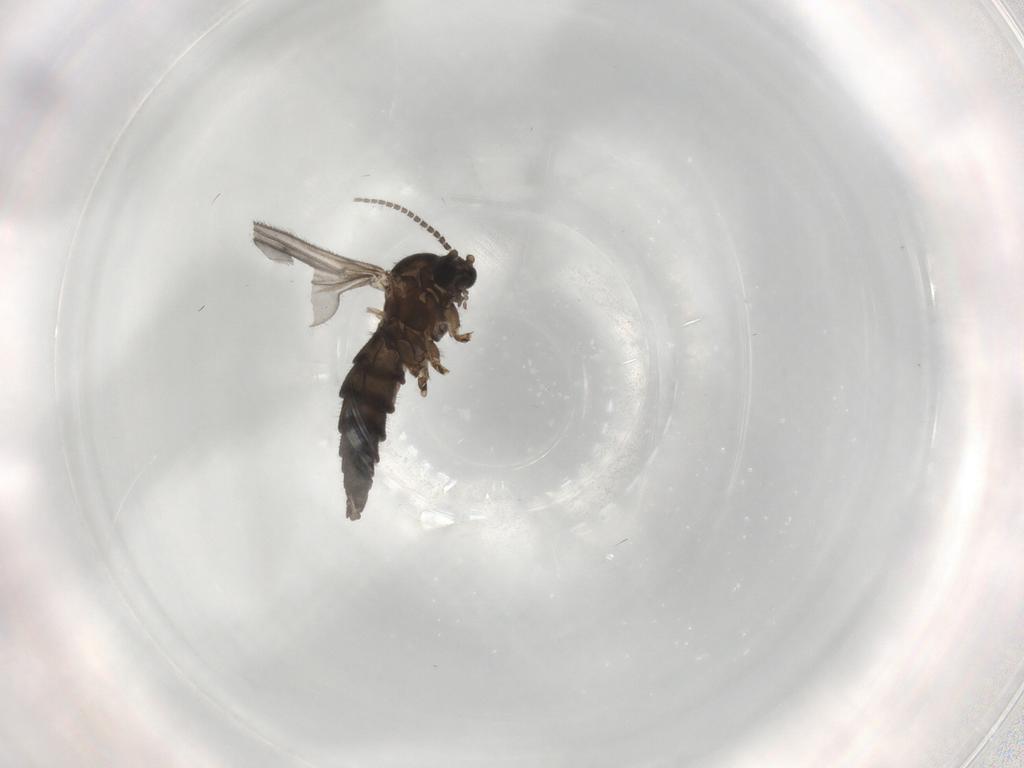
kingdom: Animalia
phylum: Arthropoda
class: Insecta
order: Diptera
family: Sciaridae
